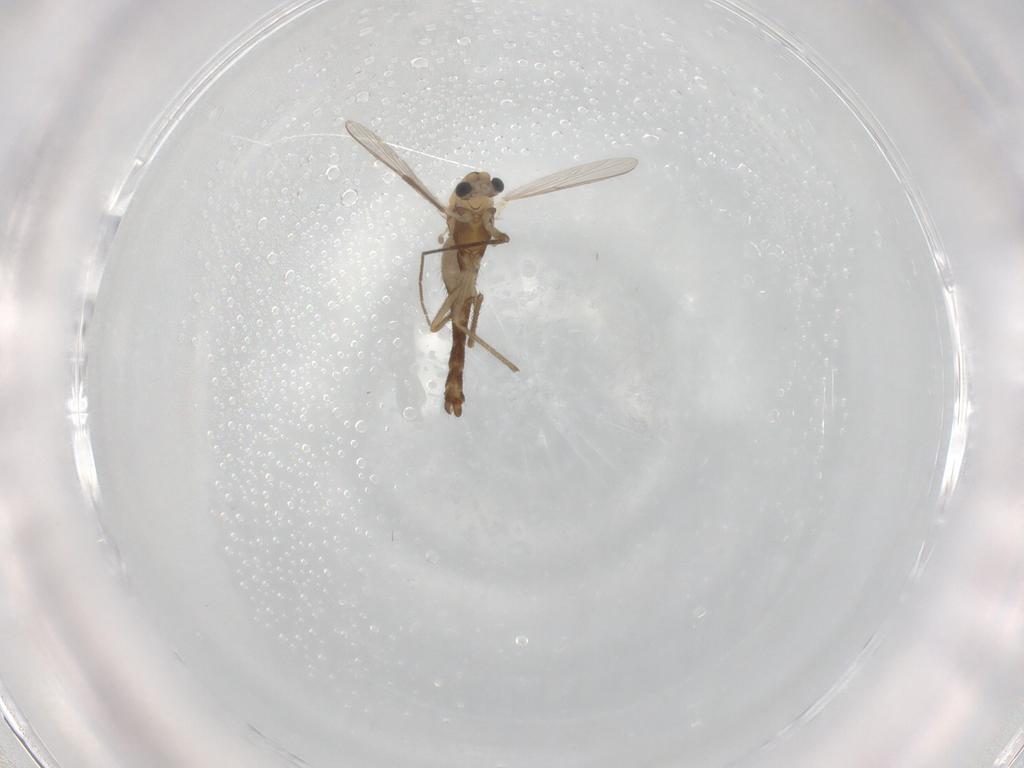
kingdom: Animalia
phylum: Arthropoda
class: Insecta
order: Diptera
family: Chironomidae
